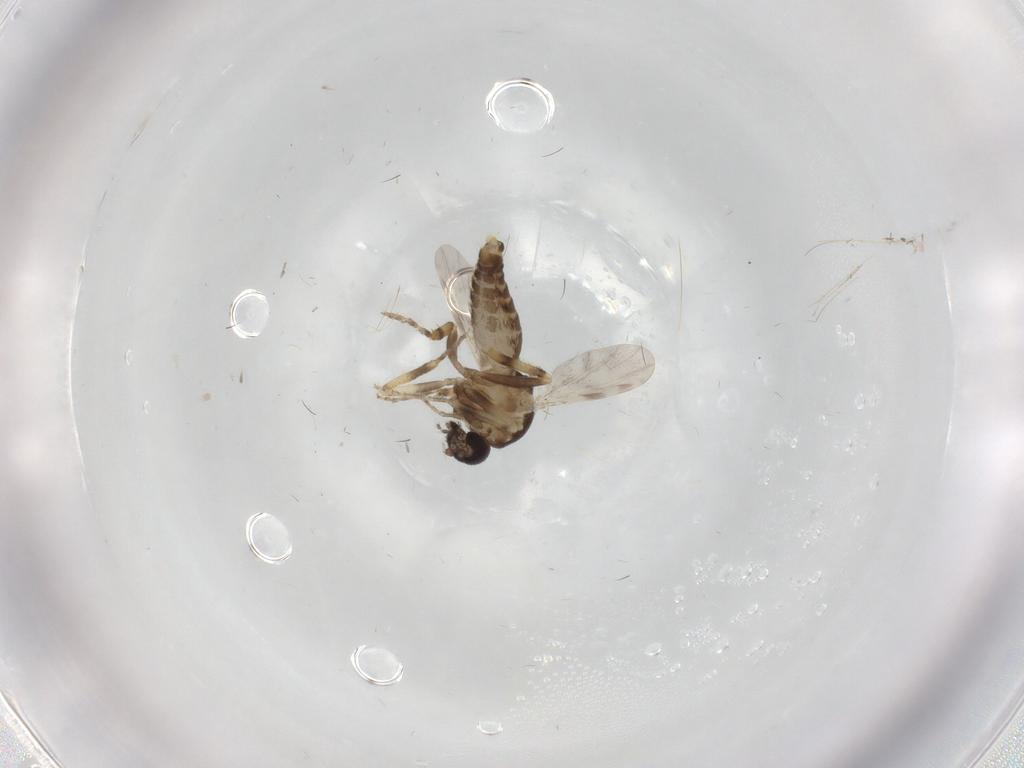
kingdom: Animalia
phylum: Arthropoda
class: Insecta
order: Diptera
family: Ceratopogonidae
